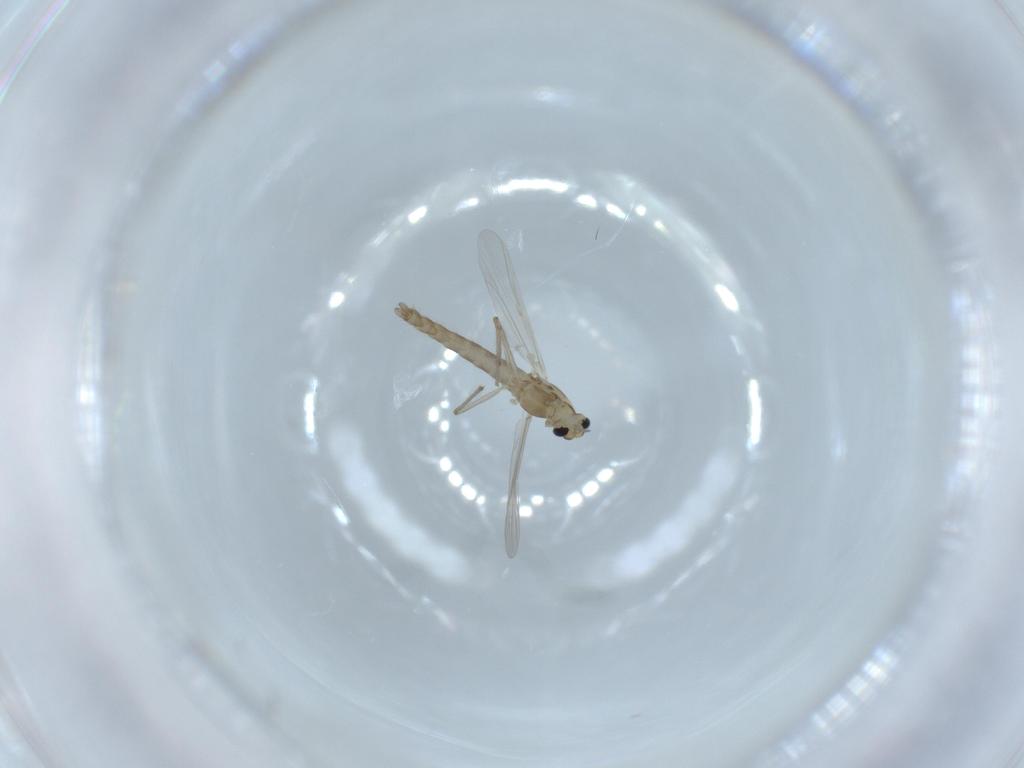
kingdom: Animalia
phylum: Arthropoda
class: Insecta
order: Diptera
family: Chironomidae
